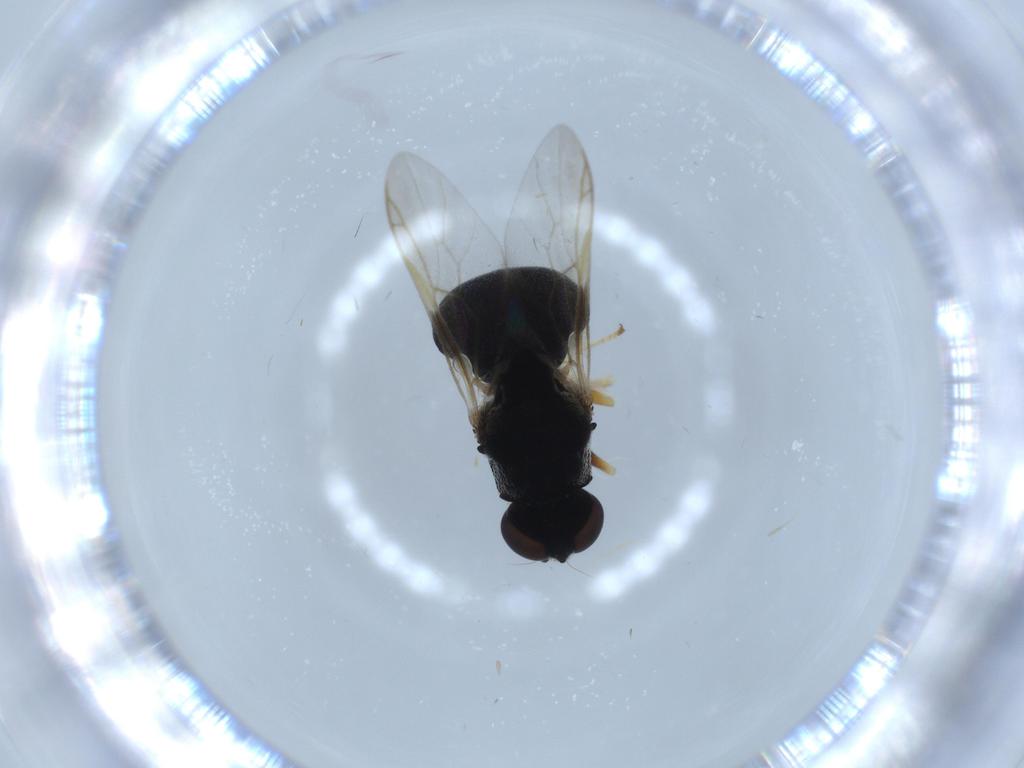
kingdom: Animalia
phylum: Arthropoda
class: Insecta
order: Diptera
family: Stratiomyidae
